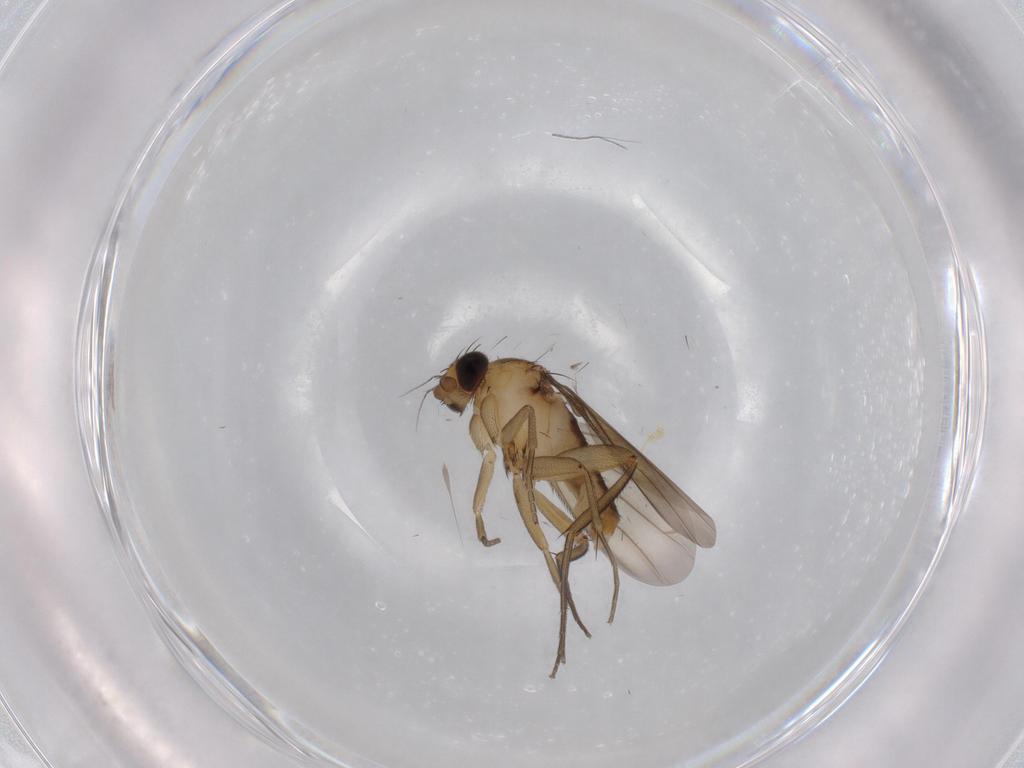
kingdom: Animalia
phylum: Arthropoda
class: Insecta
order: Diptera
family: Phoridae
